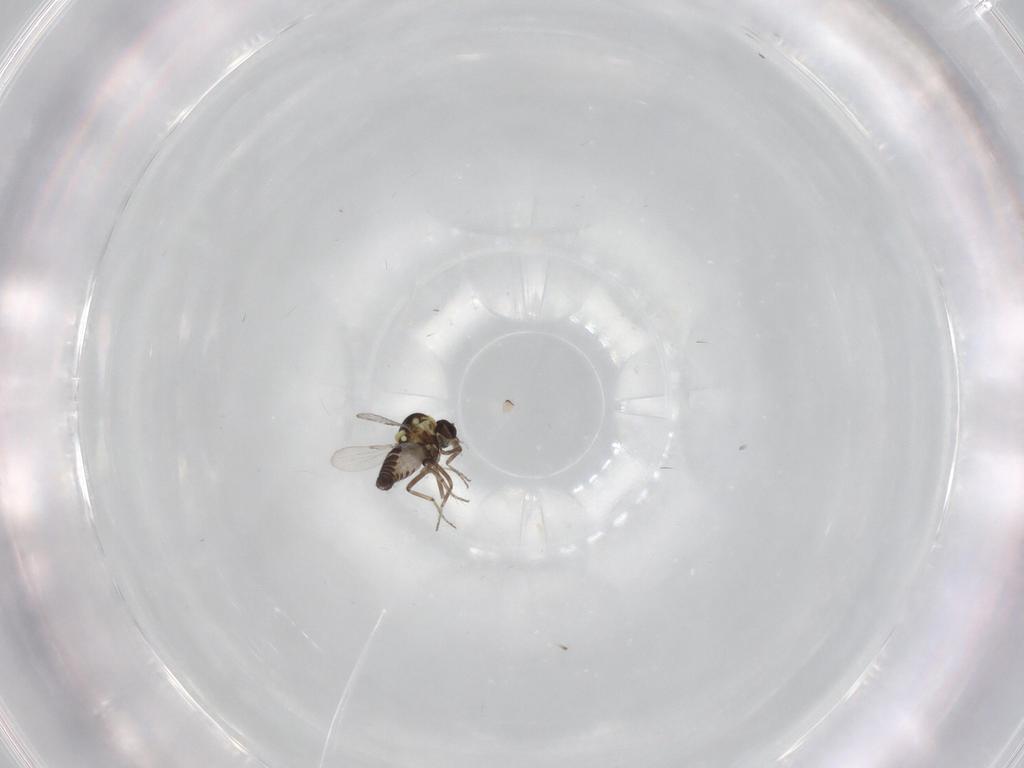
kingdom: Animalia
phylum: Arthropoda
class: Insecta
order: Diptera
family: Ceratopogonidae
